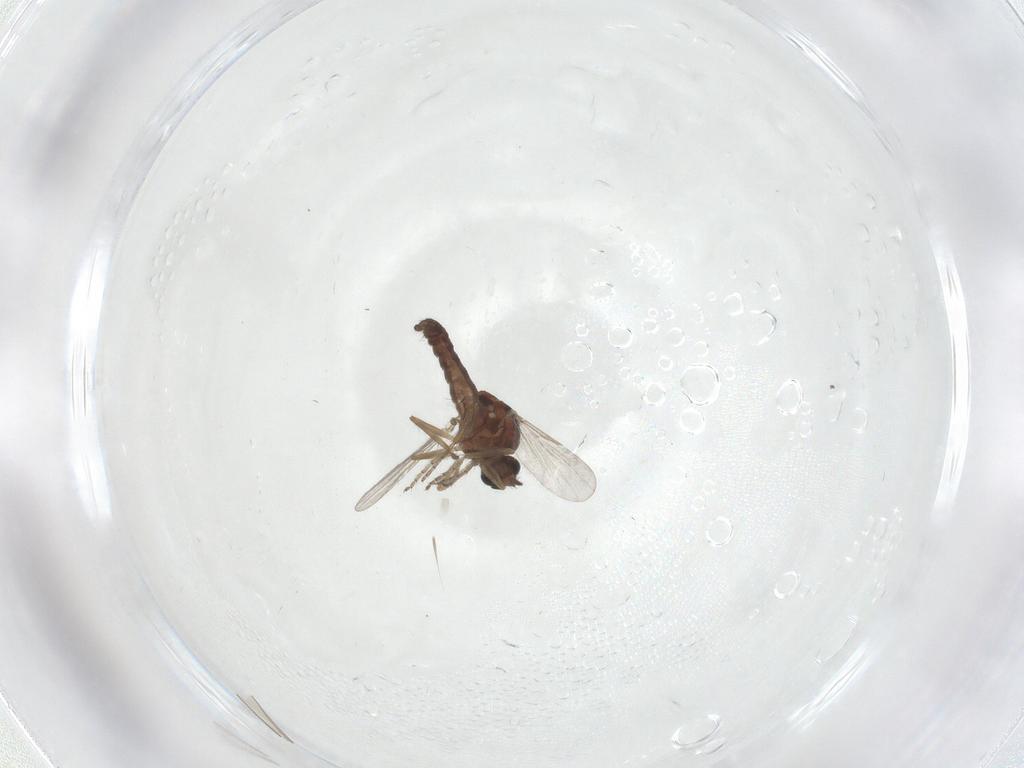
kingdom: Animalia
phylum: Arthropoda
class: Insecta
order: Diptera
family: Ceratopogonidae
